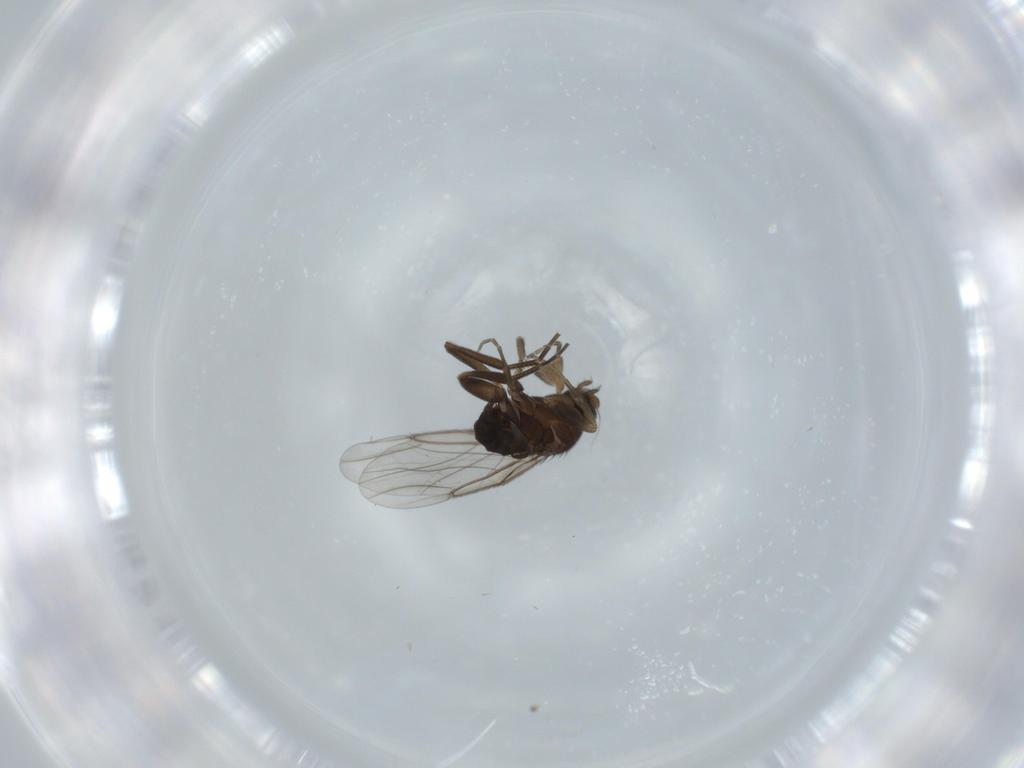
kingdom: Animalia
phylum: Arthropoda
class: Insecta
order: Diptera
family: Phoridae
